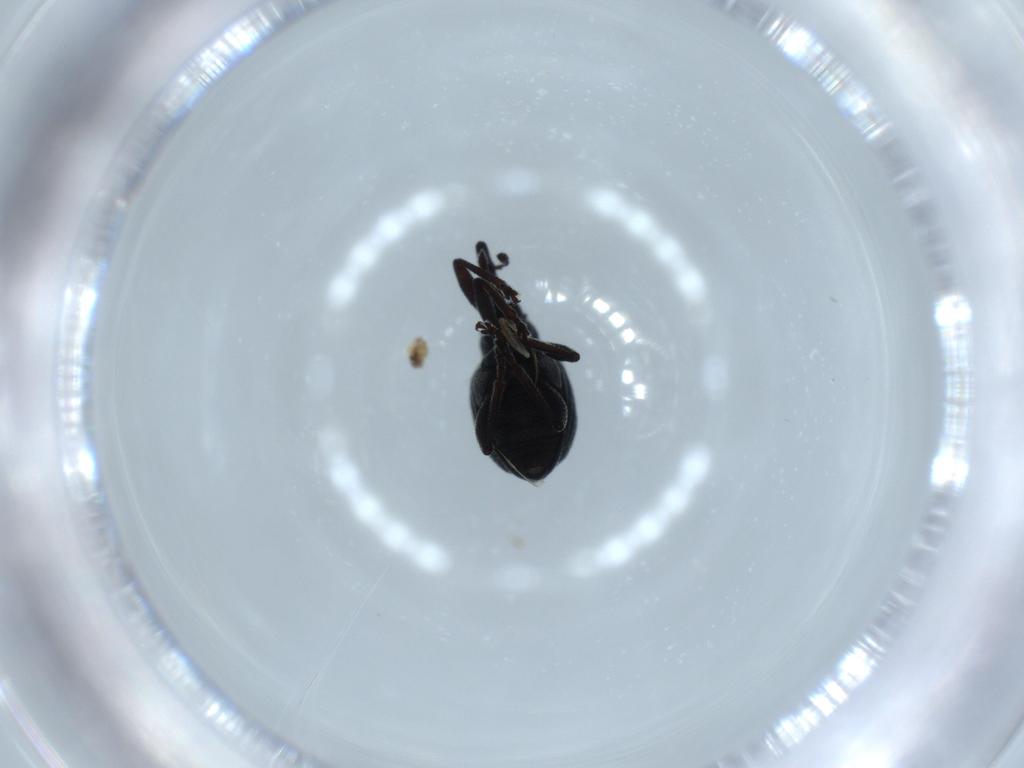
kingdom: Animalia
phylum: Arthropoda
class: Insecta
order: Coleoptera
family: Brentidae
